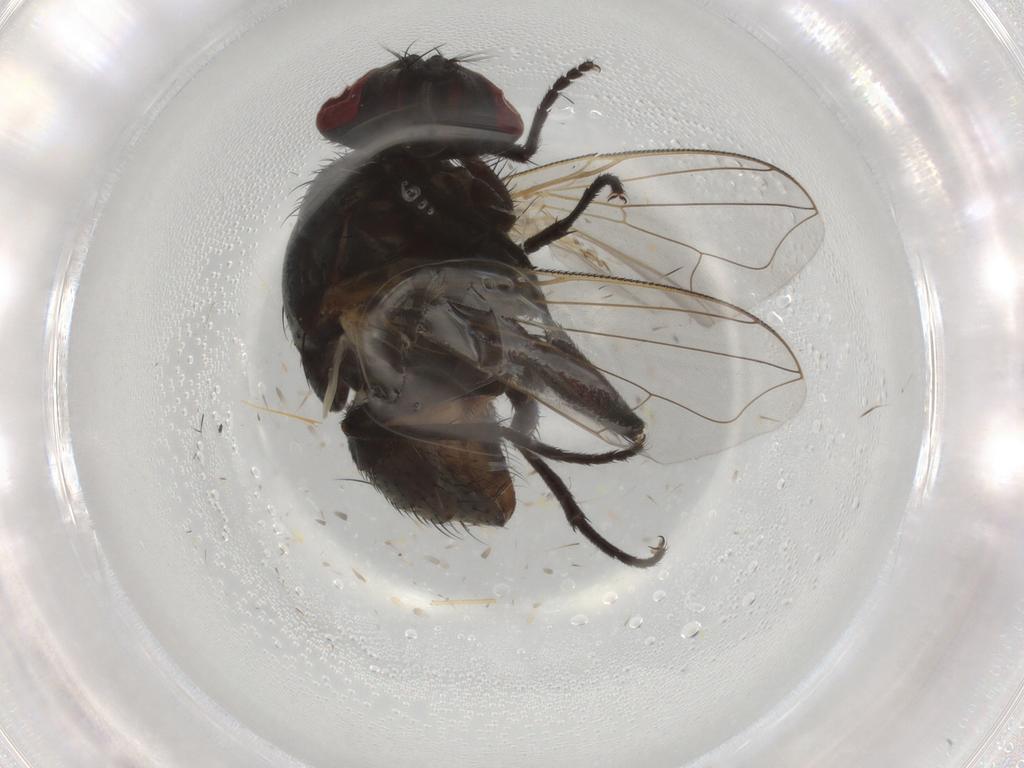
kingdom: Animalia
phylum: Arthropoda
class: Insecta
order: Diptera
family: Muscidae
